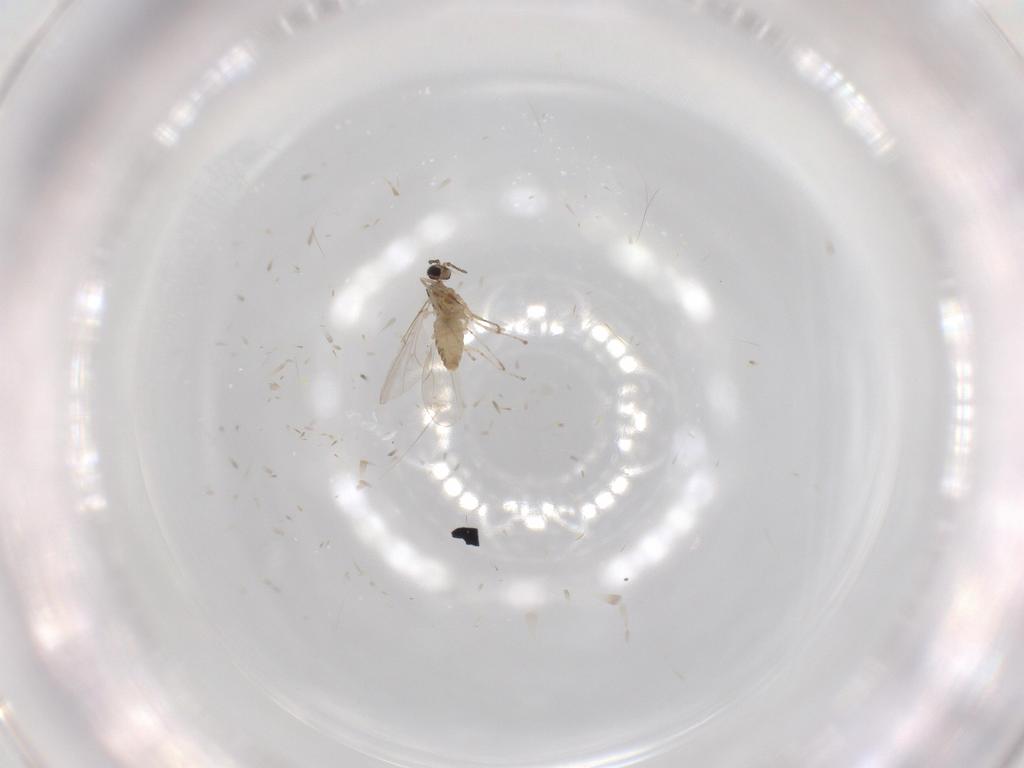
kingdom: Animalia
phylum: Arthropoda
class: Insecta
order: Diptera
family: Cecidomyiidae
